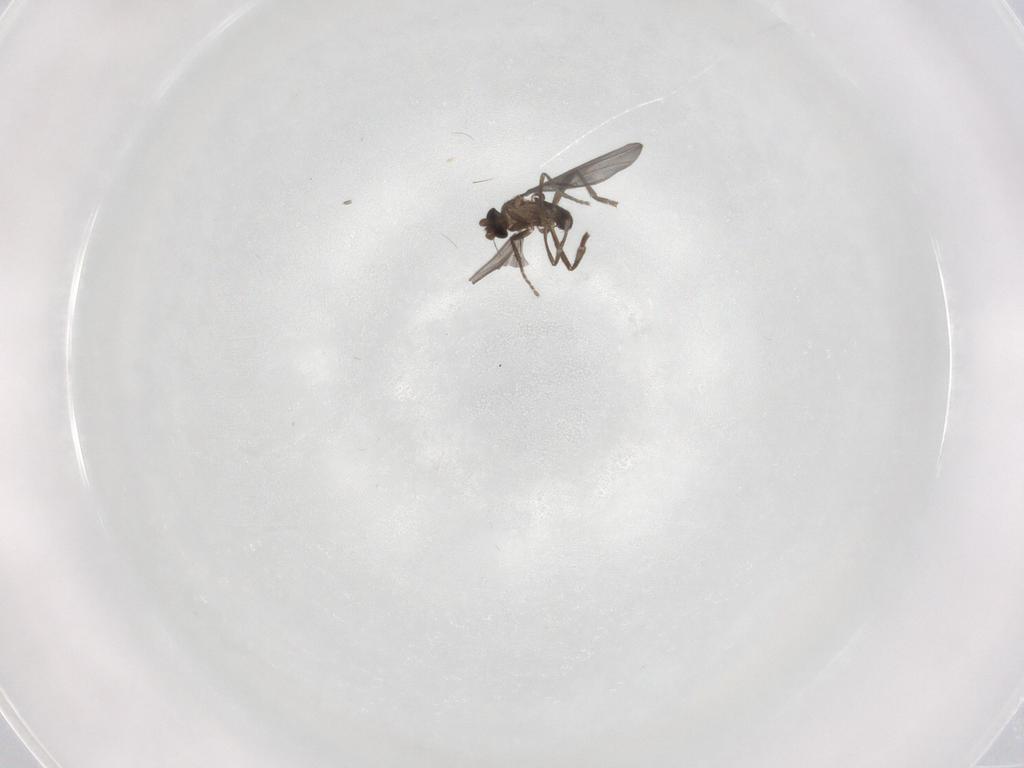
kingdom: Animalia
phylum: Arthropoda
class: Insecta
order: Diptera
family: Phoridae
